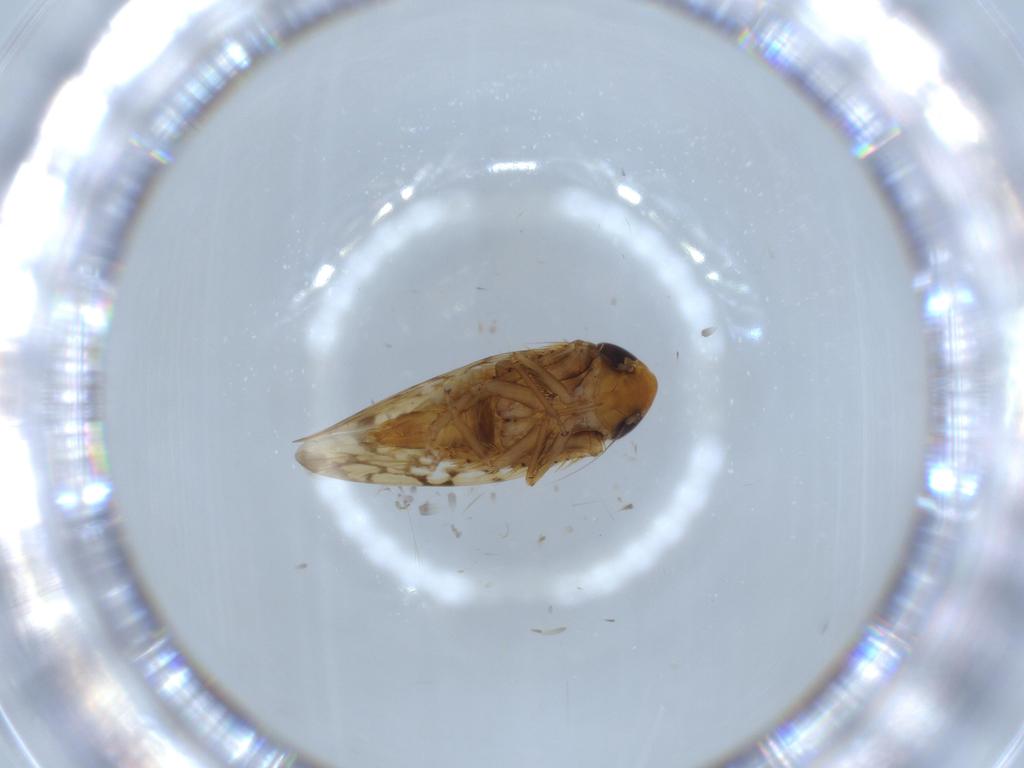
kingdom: Animalia
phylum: Arthropoda
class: Insecta
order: Hemiptera
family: Cicadellidae
